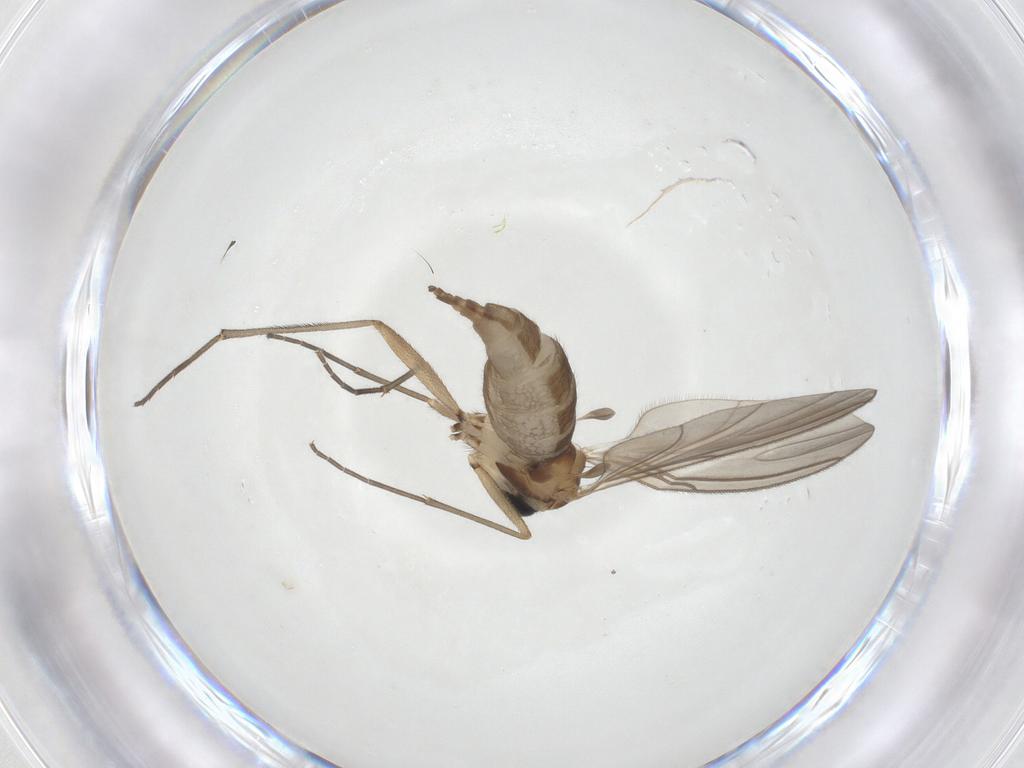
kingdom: Animalia
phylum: Arthropoda
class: Insecta
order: Diptera
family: Sciaridae
